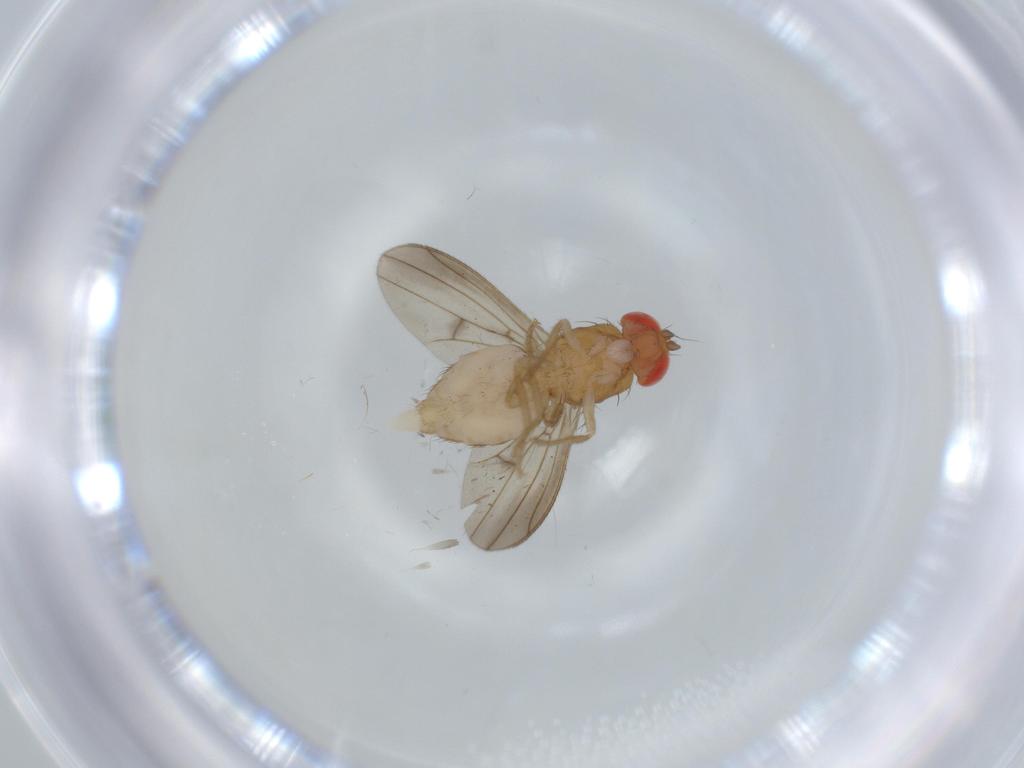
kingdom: Animalia
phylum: Arthropoda
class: Insecta
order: Diptera
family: Drosophilidae
